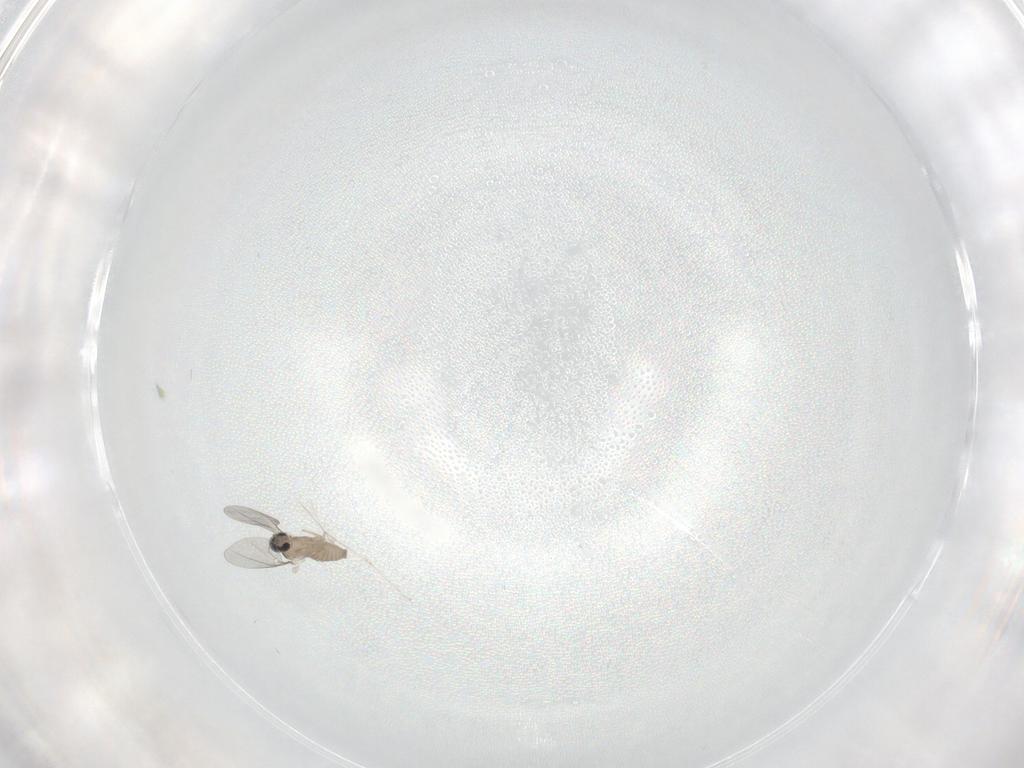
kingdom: Animalia
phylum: Arthropoda
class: Insecta
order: Diptera
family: Cecidomyiidae
